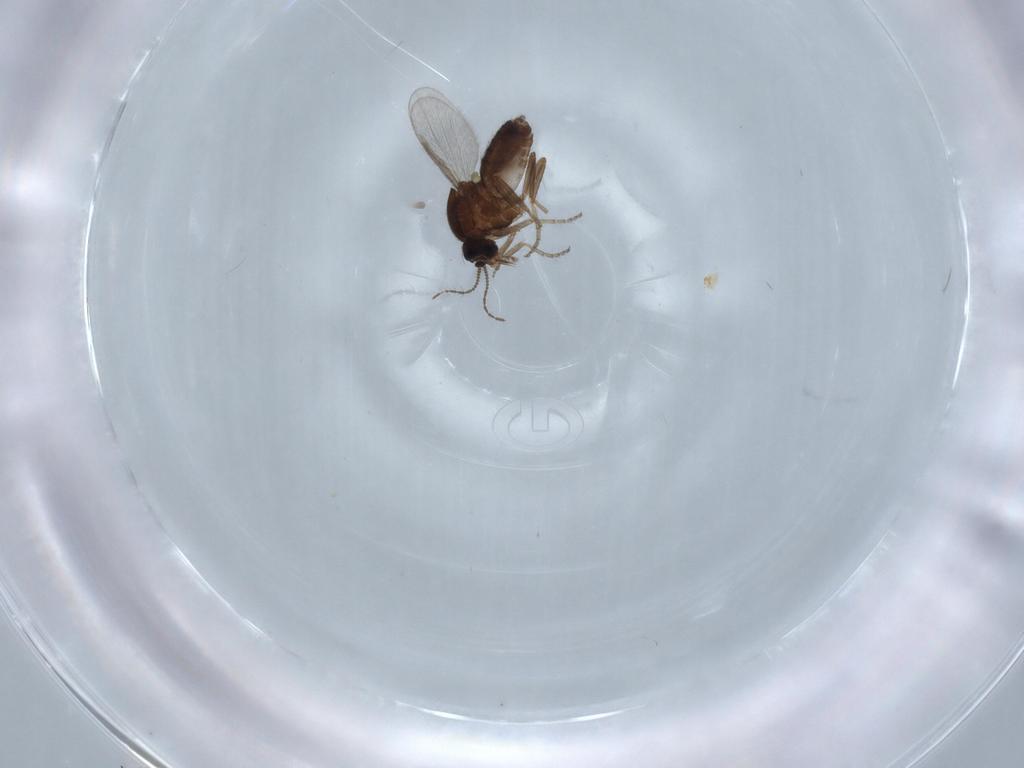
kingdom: Animalia
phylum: Arthropoda
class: Insecta
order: Diptera
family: Ceratopogonidae
